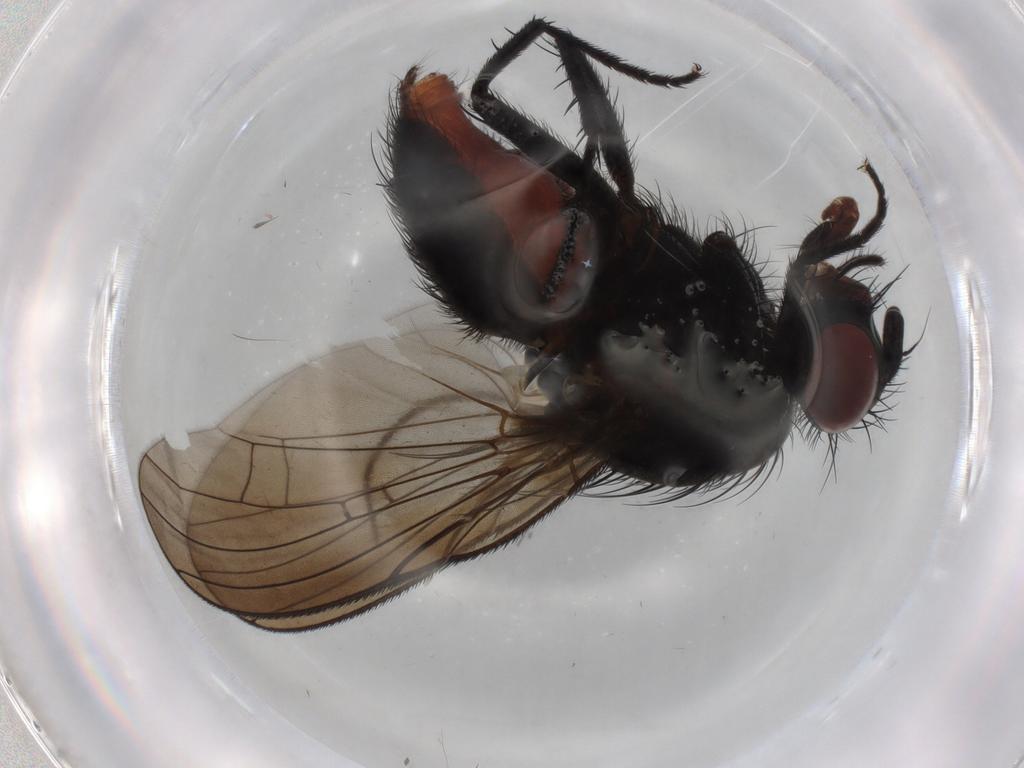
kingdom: Animalia
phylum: Arthropoda
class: Insecta
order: Diptera
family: Anthomyiidae
